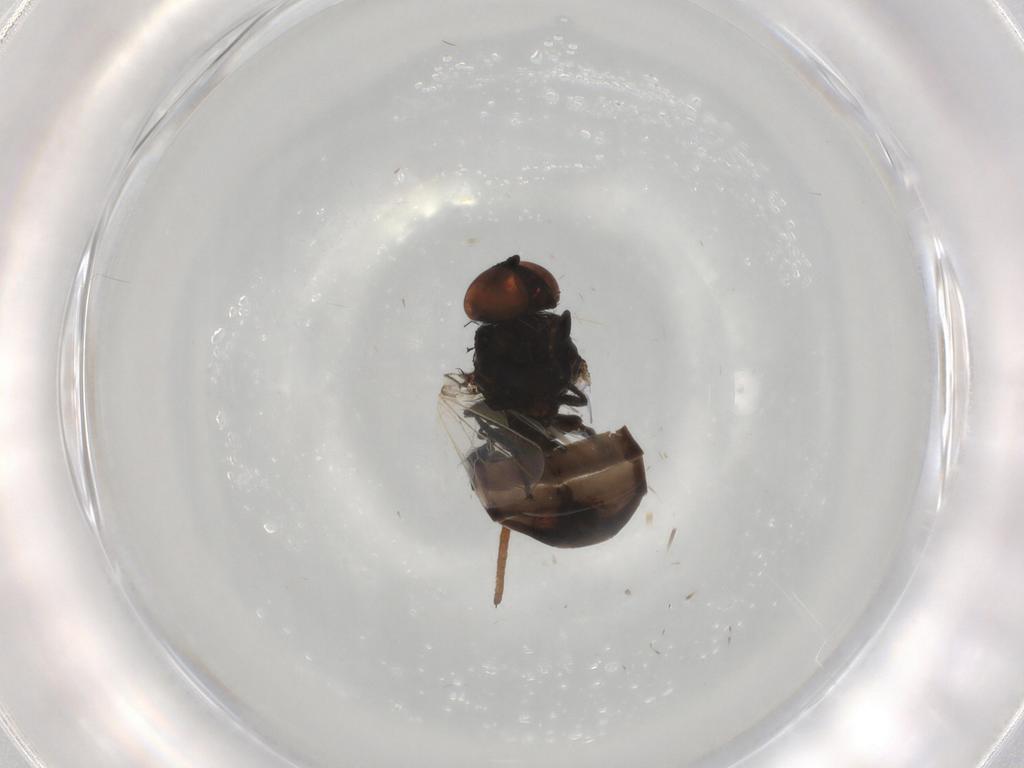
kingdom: Animalia
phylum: Arthropoda
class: Insecta
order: Diptera
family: Milichiidae
